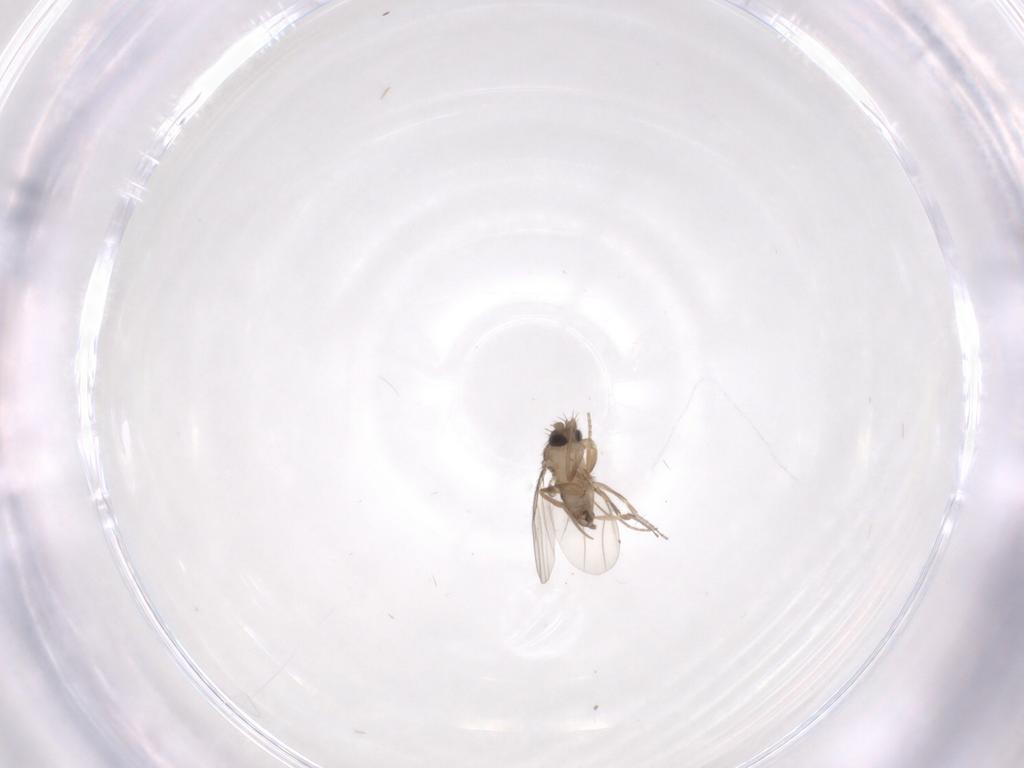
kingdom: Animalia
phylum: Arthropoda
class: Insecta
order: Diptera
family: Phoridae
